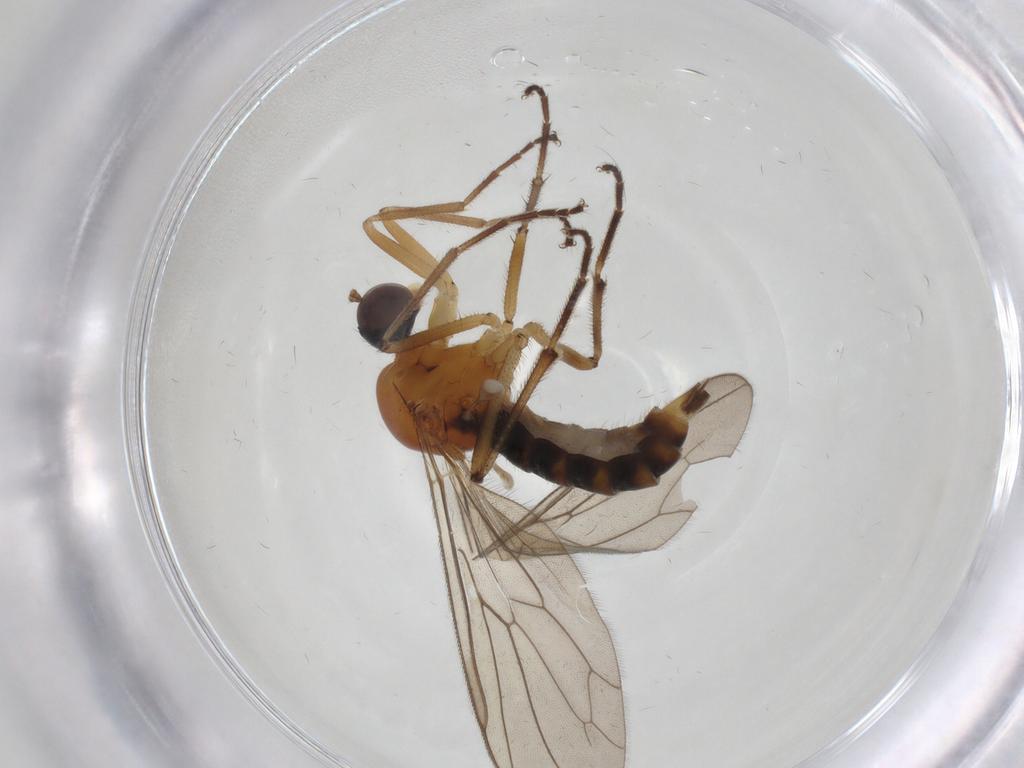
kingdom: Animalia
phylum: Arthropoda
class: Insecta
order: Diptera
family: Hybotidae
